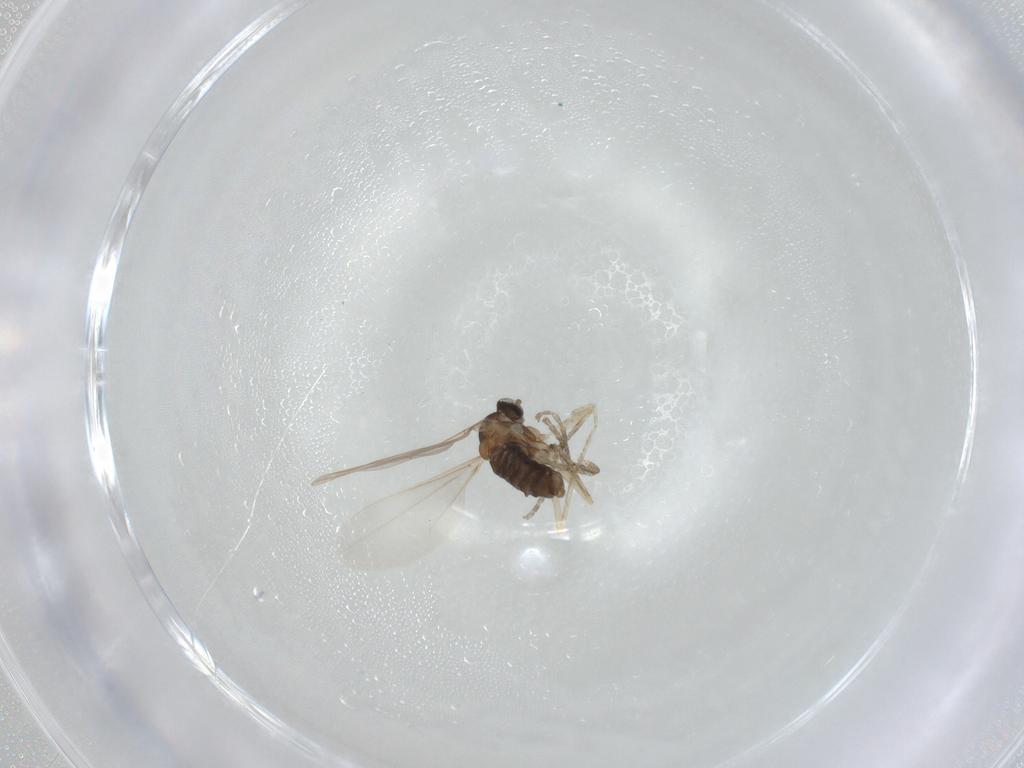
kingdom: Animalia
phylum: Arthropoda
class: Insecta
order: Diptera
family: Cecidomyiidae
